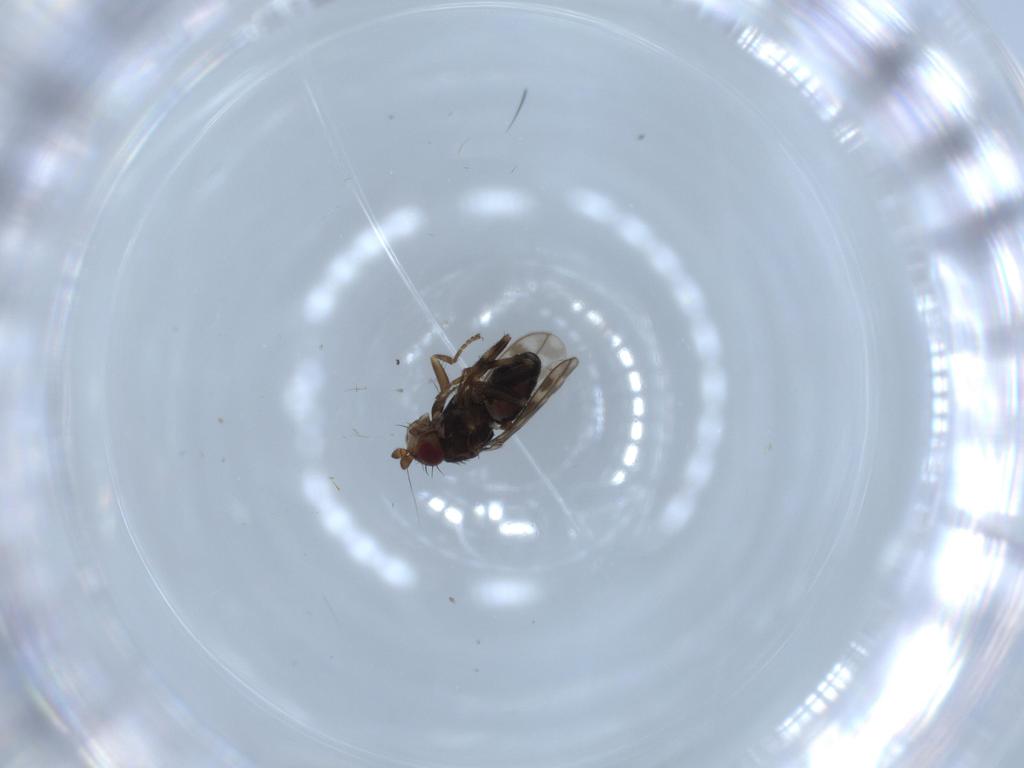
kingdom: Animalia
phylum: Arthropoda
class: Insecta
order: Diptera
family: Sphaeroceridae
